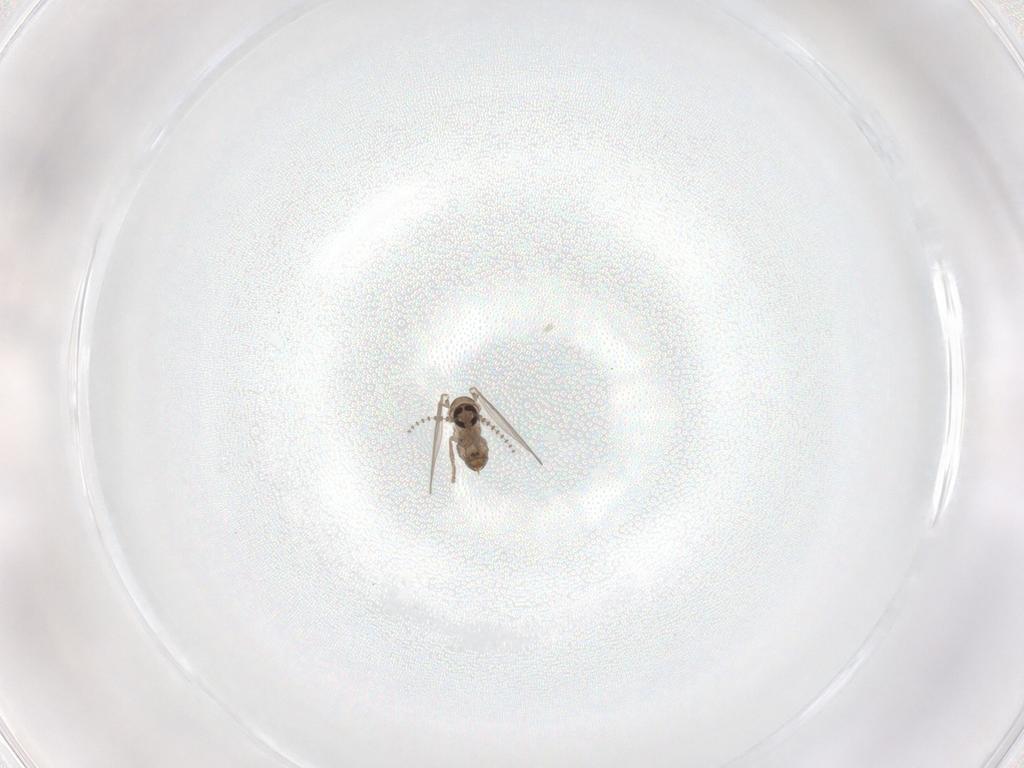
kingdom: Animalia
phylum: Arthropoda
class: Insecta
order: Diptera
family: Psychodidae
